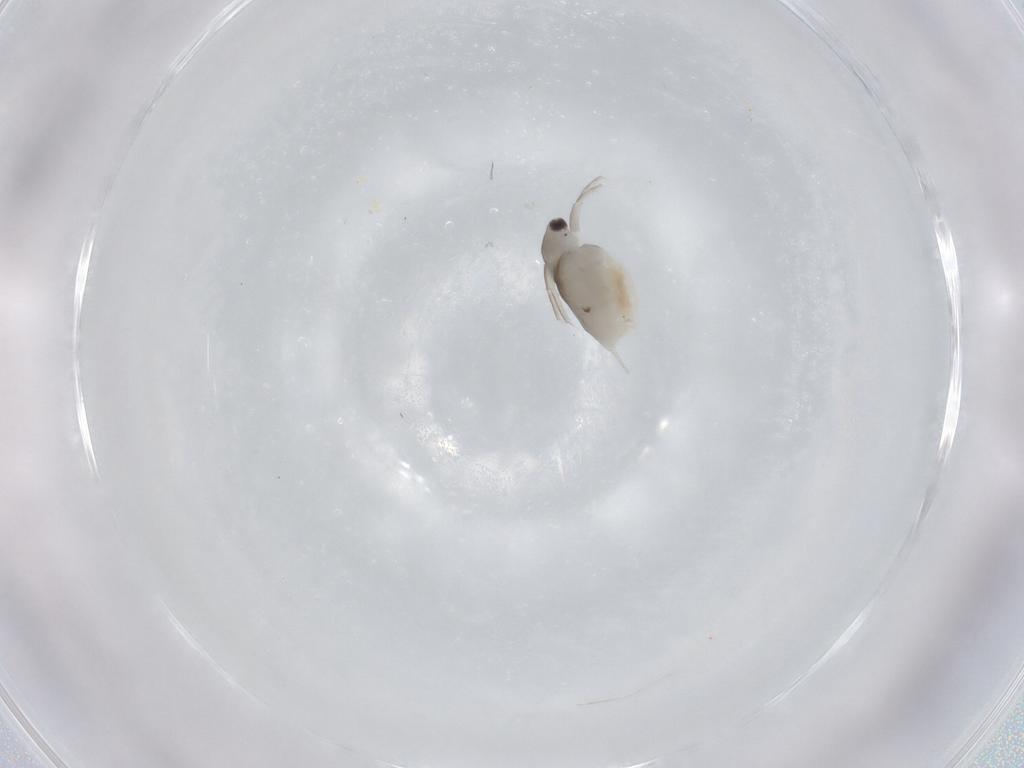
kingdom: Animalia
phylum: Arthropoda
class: Branchiopoda
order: Diplostraca
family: Daphniidae
